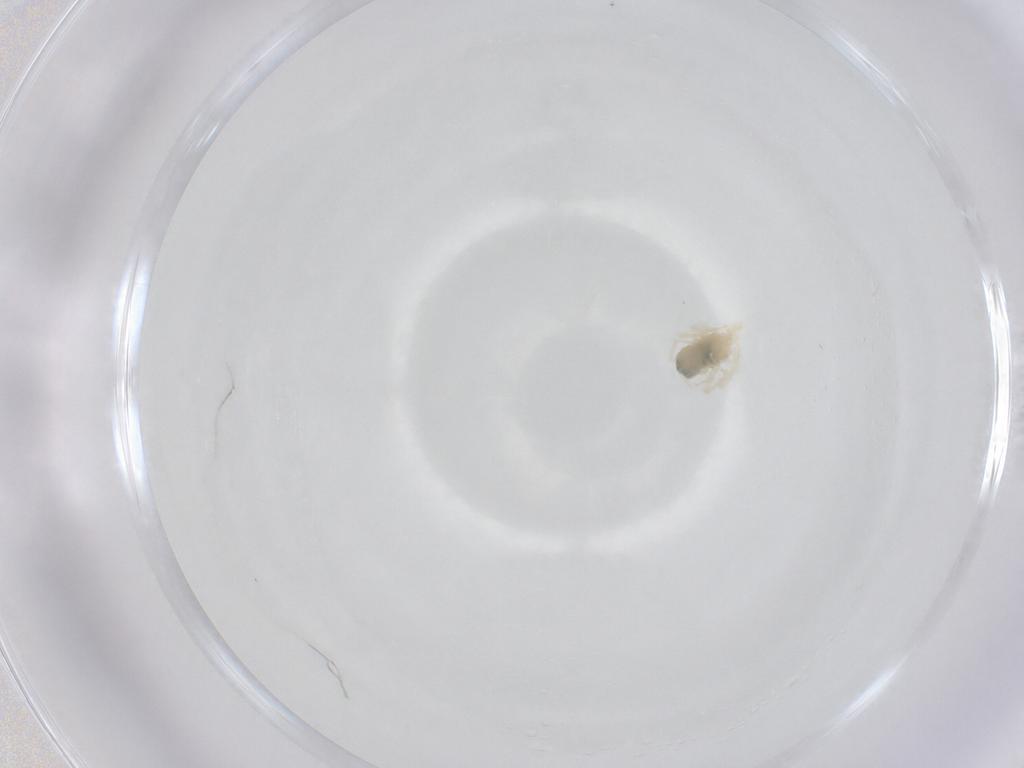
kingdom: Animalia
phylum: Arthropoda
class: Arachnida
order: Trombidiformes
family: Anystidae
